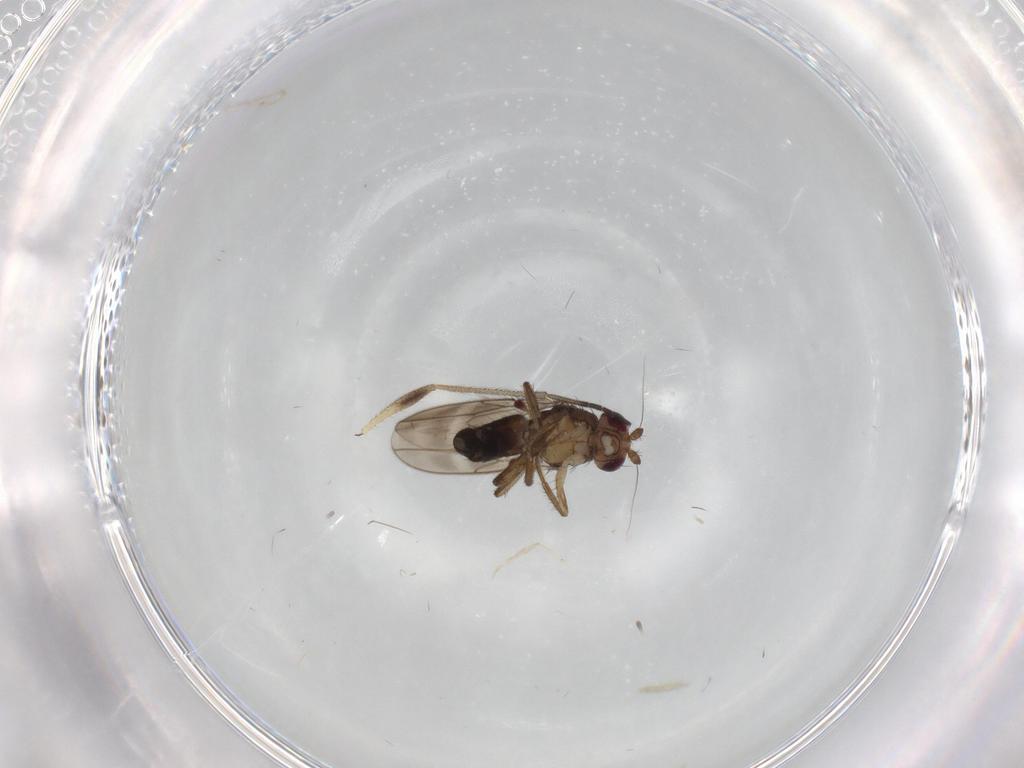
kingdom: Animalia
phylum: Arthropoda
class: Insecta
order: Diptera
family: Sphaeroceridae
